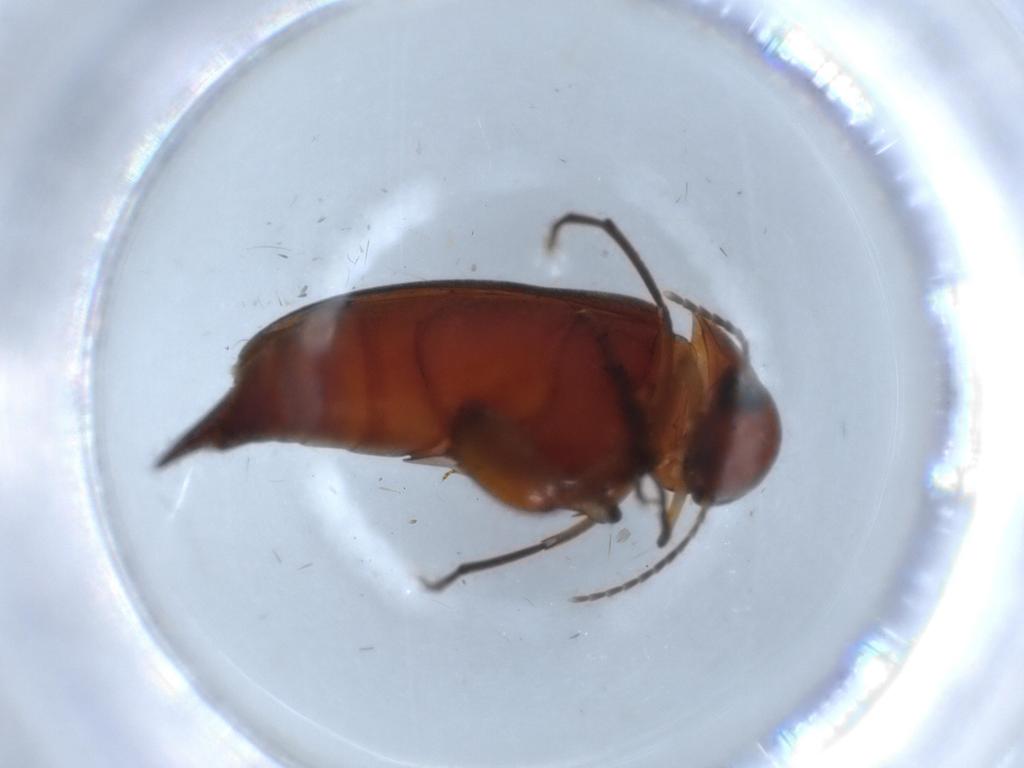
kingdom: Animalia
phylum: Arthropoda
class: Insecta
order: Coleoptera
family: Mordellidae
